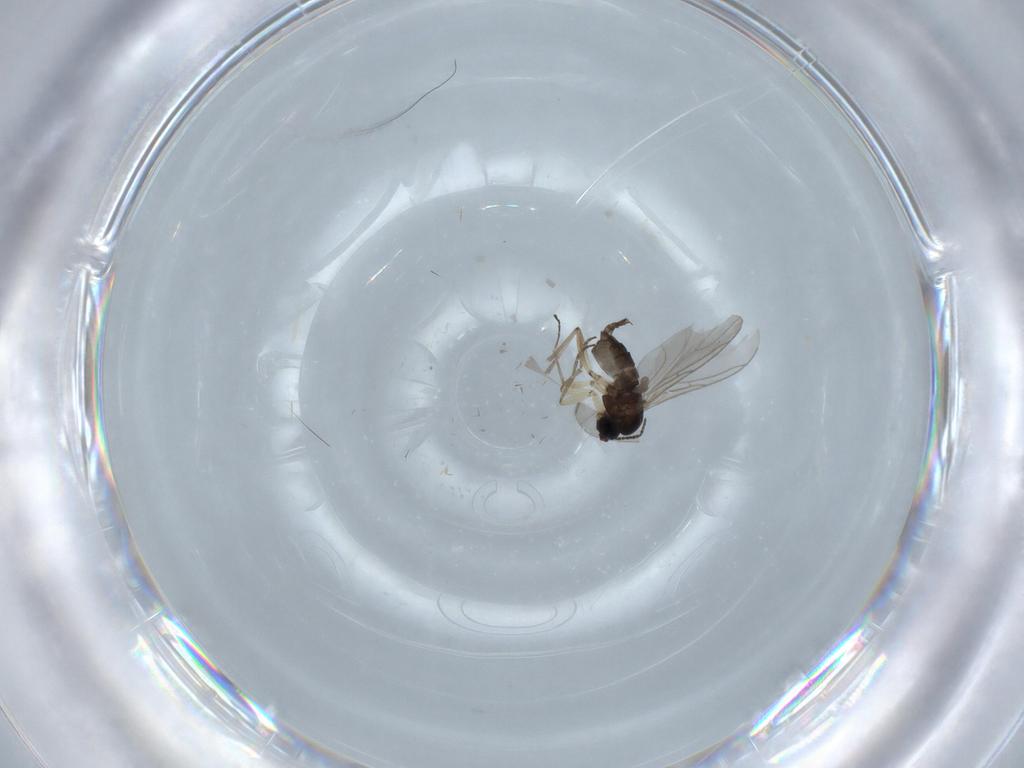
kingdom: Animalia
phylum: Arthropoda
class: Insecta
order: Diptera
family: Sciaridae
